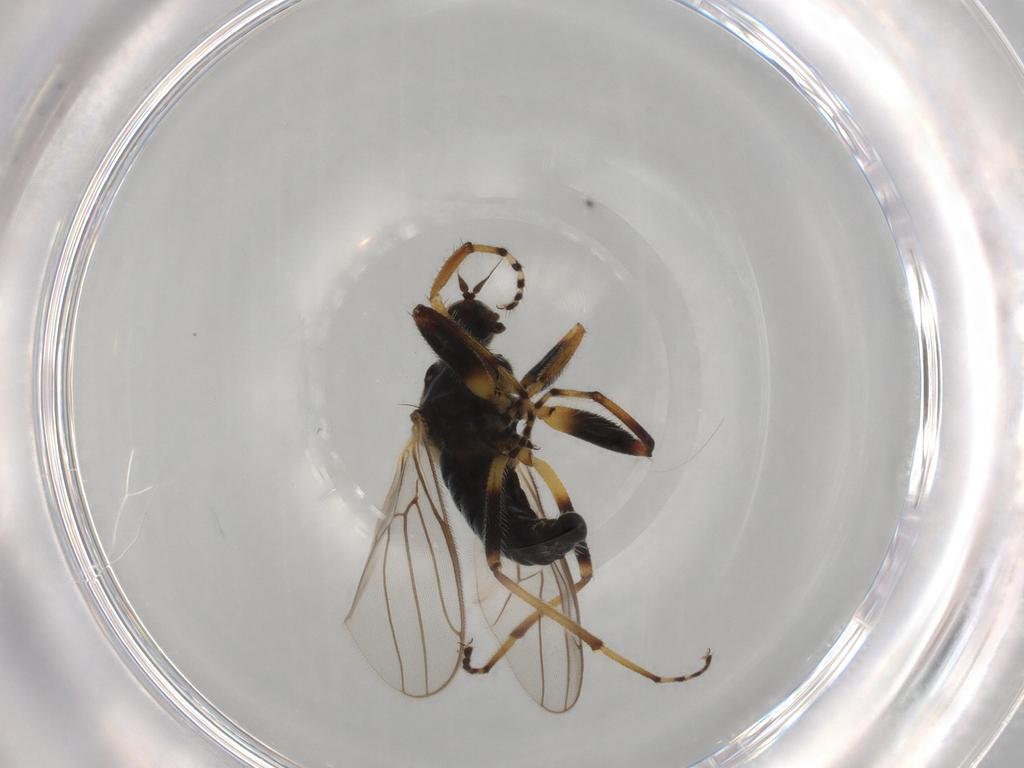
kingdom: Animalia
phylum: Arthropoda
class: Insecta
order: Diptera
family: Hybotidae
